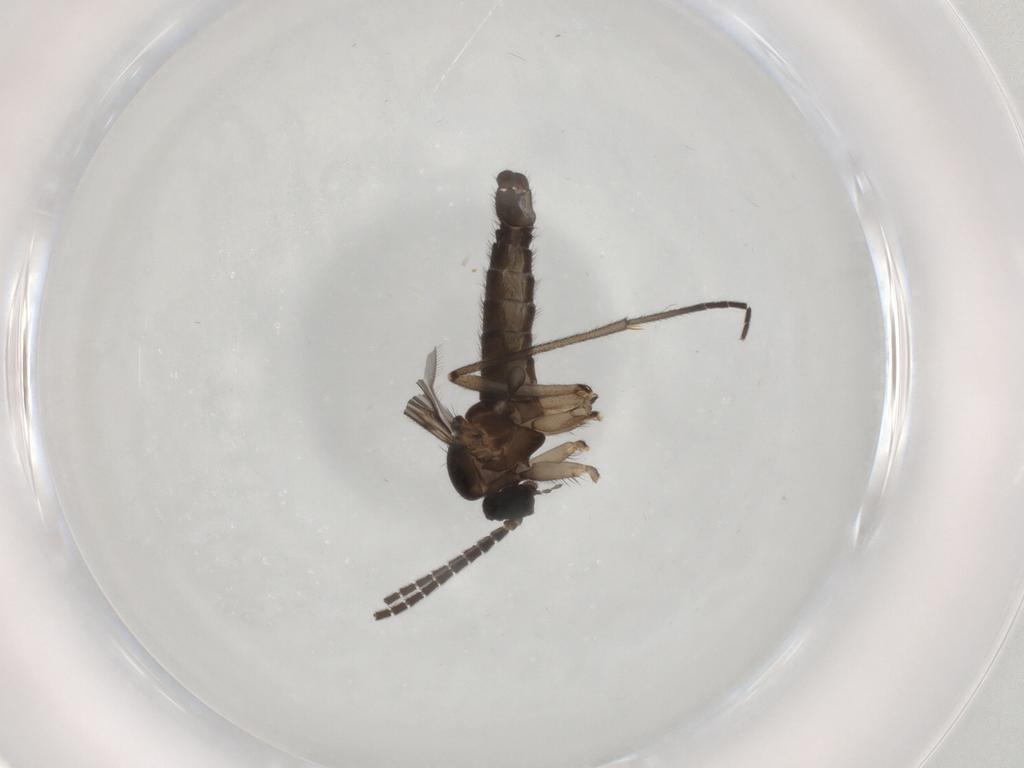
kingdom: Animalia
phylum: Arthropoda
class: Insecta
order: Diptera
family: Sciaridae
